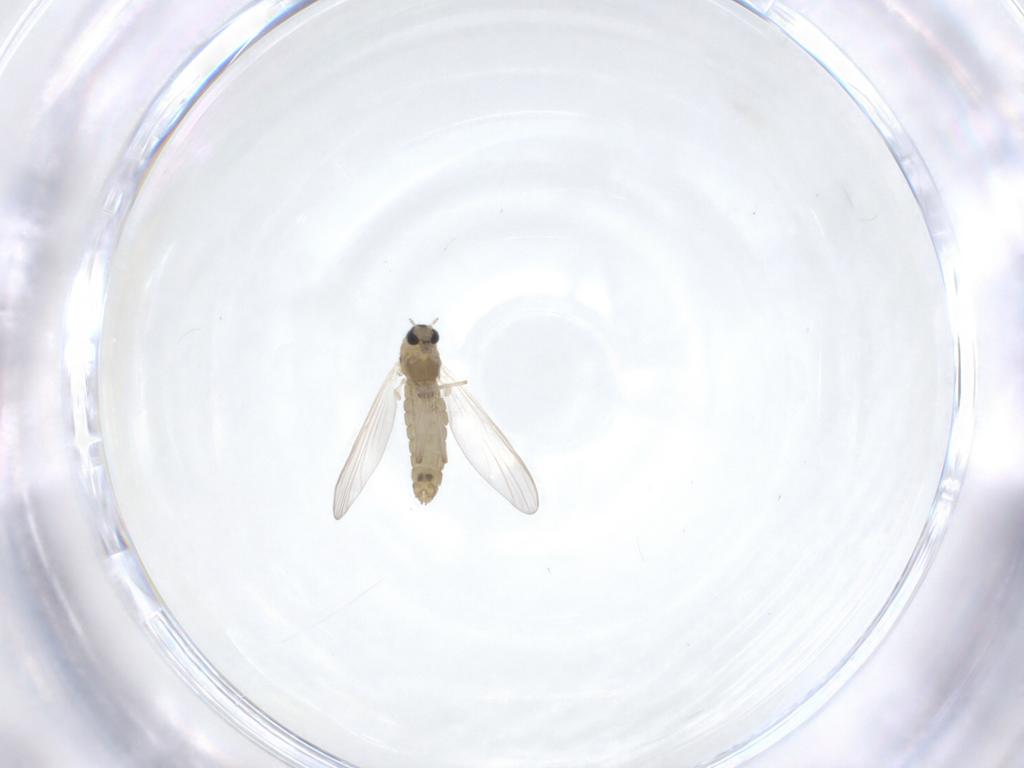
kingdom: Animalia
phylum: Arthropoda
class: Insecta
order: Diptera
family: Chironomidae
